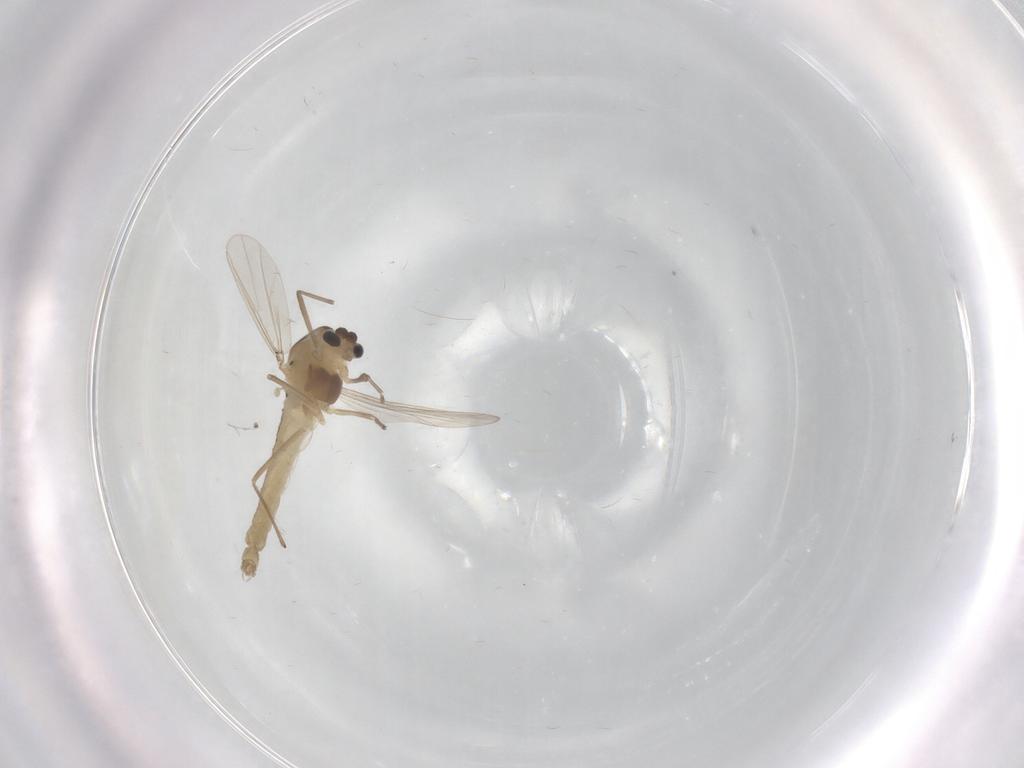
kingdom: Animalia
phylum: Arthropoda
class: Insecta
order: Diptera
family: Chironomidae
